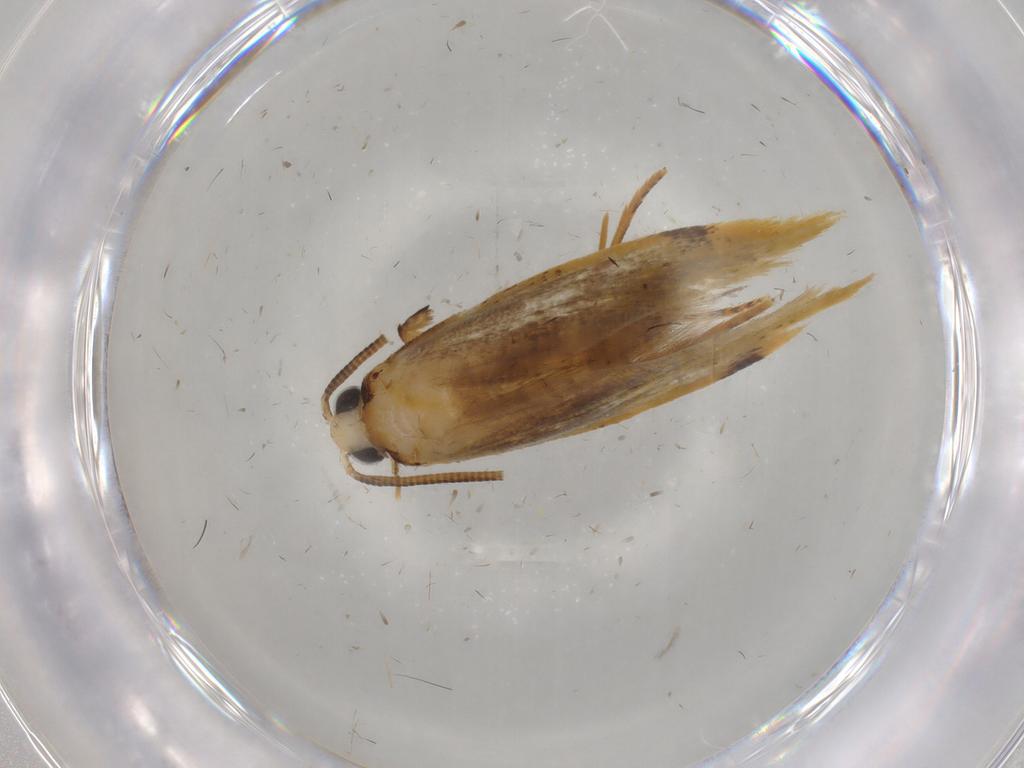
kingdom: Animalia
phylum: Arthropoda
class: Insecta
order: Lepidoptera
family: Tineidae
